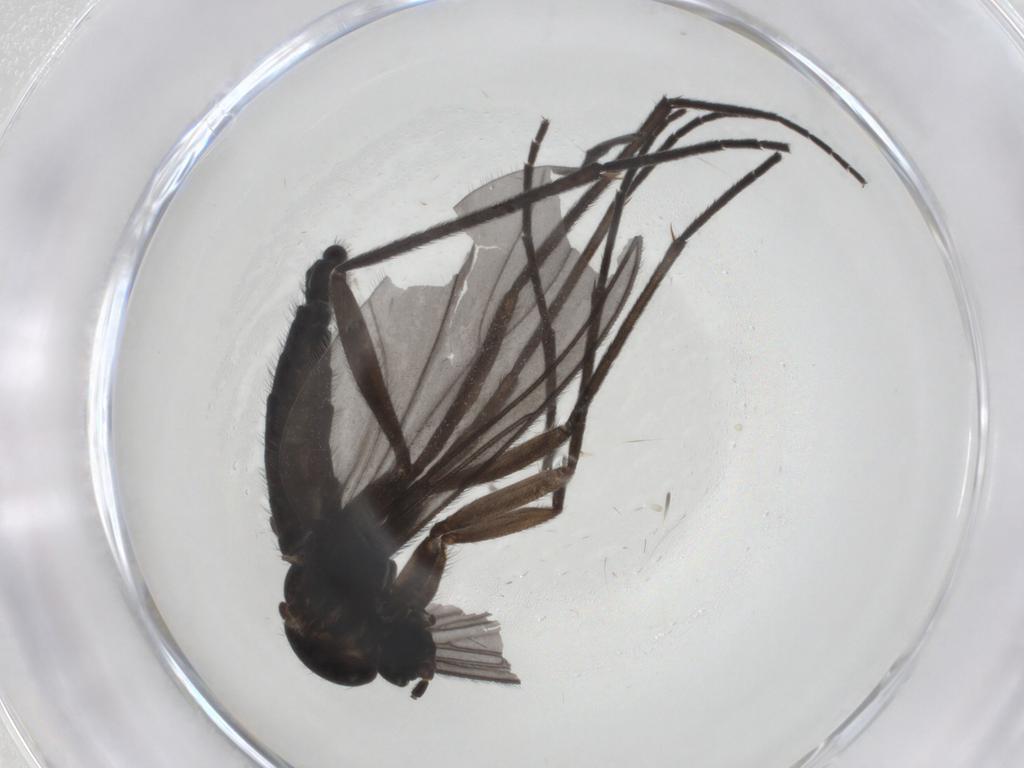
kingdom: Animalia
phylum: Arthropoda
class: Insecta
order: Diptera
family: Sciaridae
